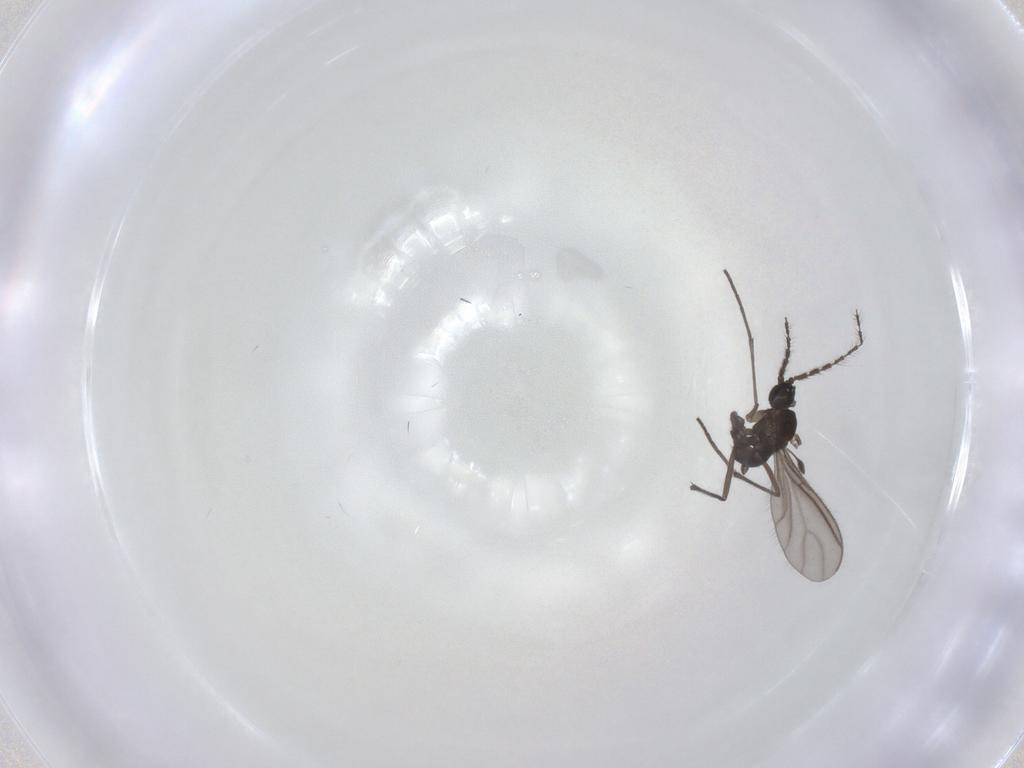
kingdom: Animalia
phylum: Arthropoda
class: Insecta
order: Diptera
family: Sciaridae
